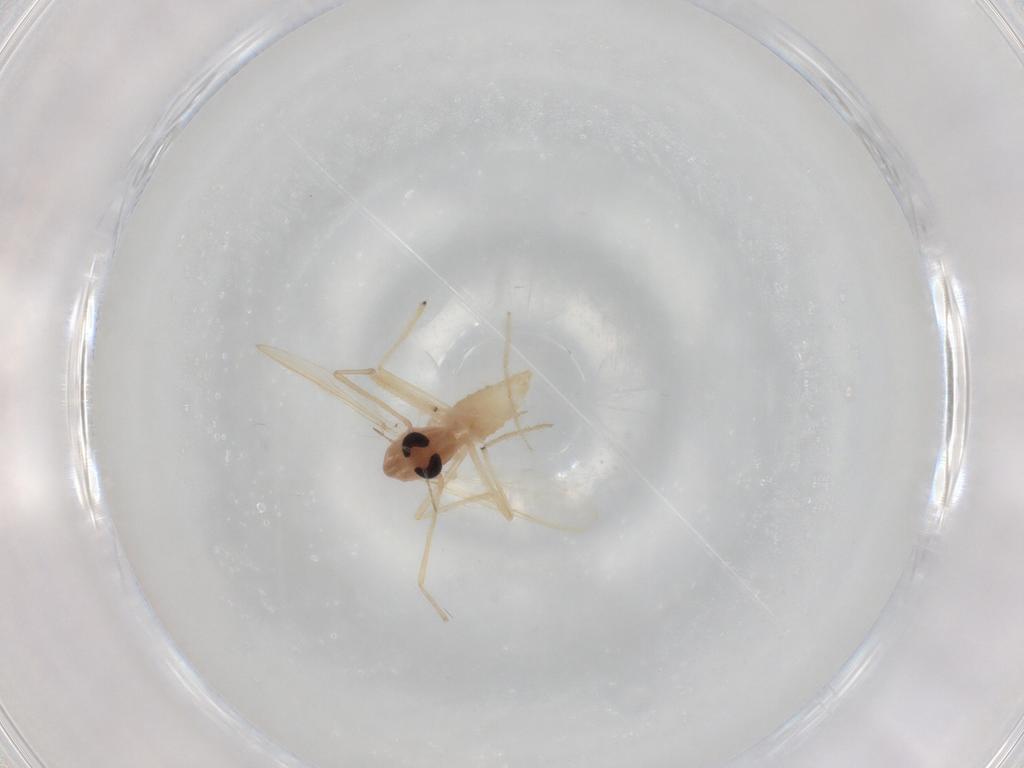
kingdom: Animalia
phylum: Arthropoda
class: Insecta
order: Diptera
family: Chironomidae
